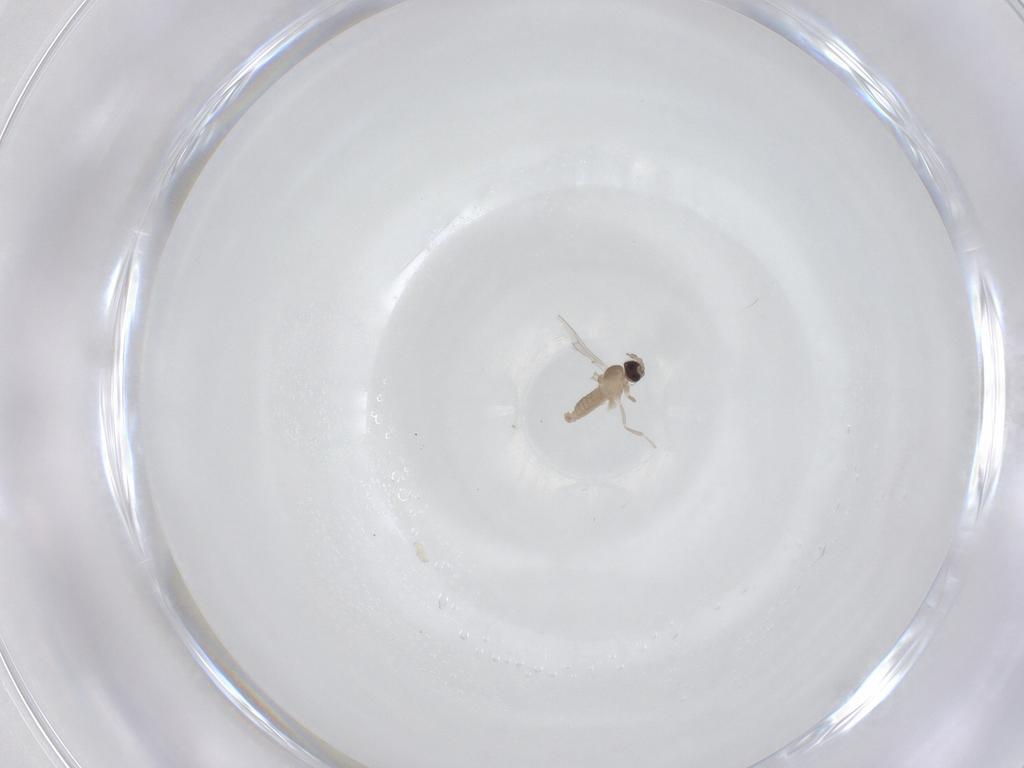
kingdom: Animalia
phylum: Arthropoda
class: Insecta
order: Diptera
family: Cecidomyiidae
